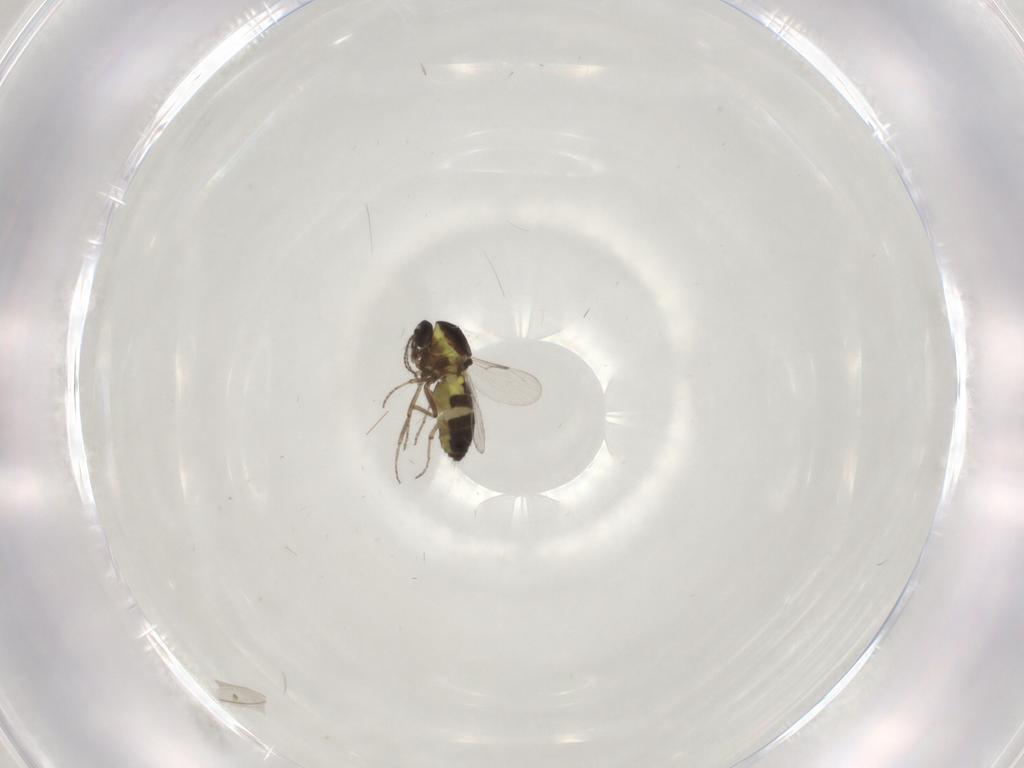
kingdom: Animalia
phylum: Arthropoda
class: Insecta
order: Diptera
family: Ceratopogonidae
